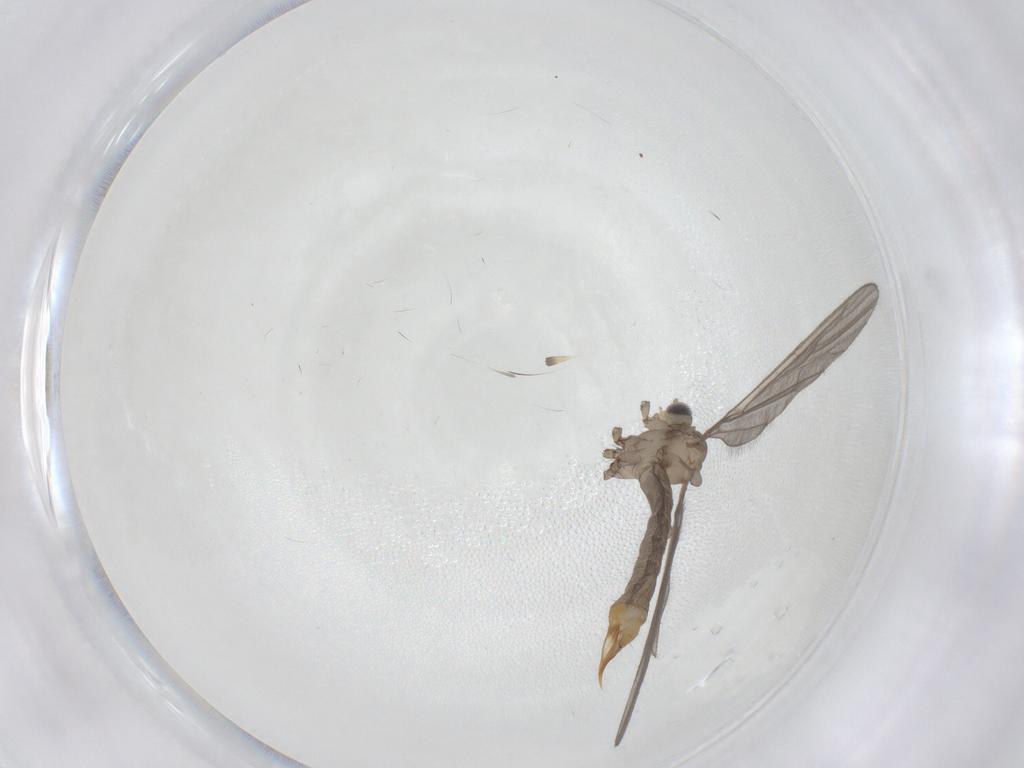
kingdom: Animalia
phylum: Arthropoda
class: Insecta
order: Diptera
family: Limoniidae
